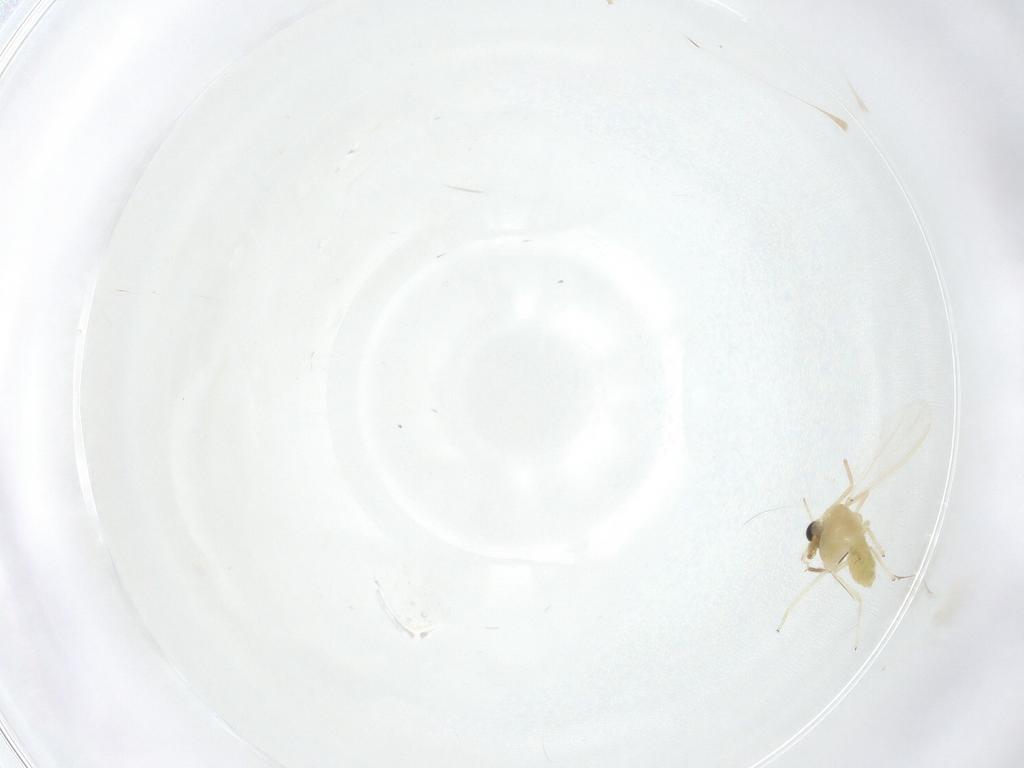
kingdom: Animalia
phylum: Arthropoda
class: Insecta
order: Diptera
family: Chironomidae
